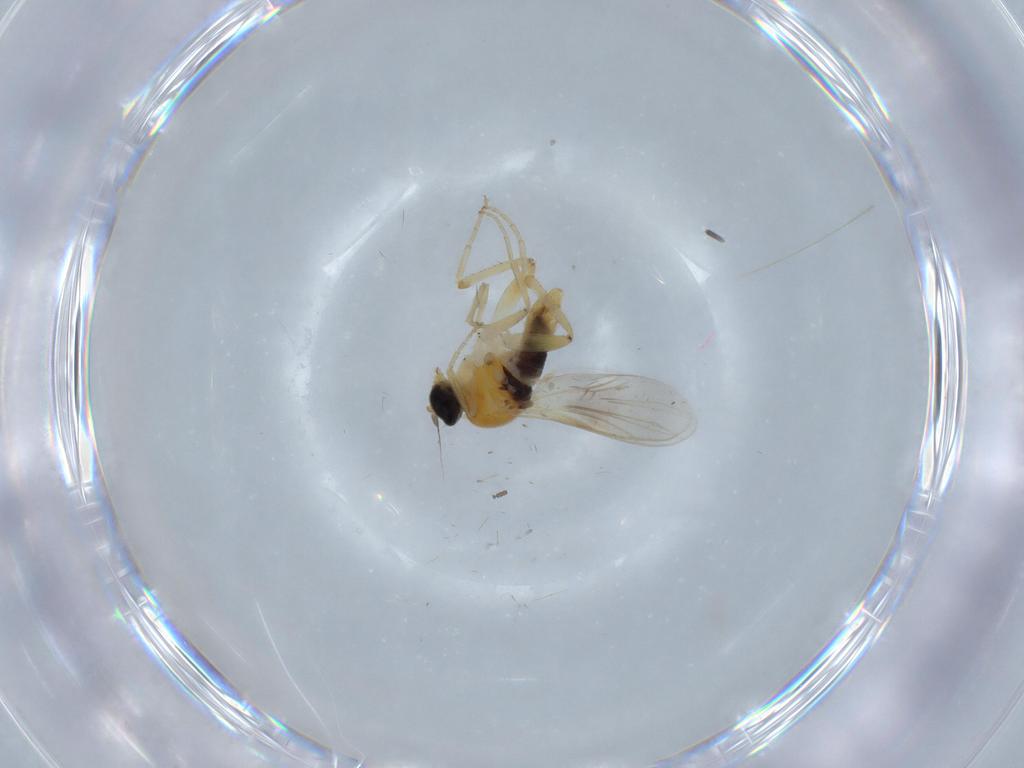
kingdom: Animalia
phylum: Arthropoda
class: Insecta
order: Diptera
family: Ceratopogonidae
